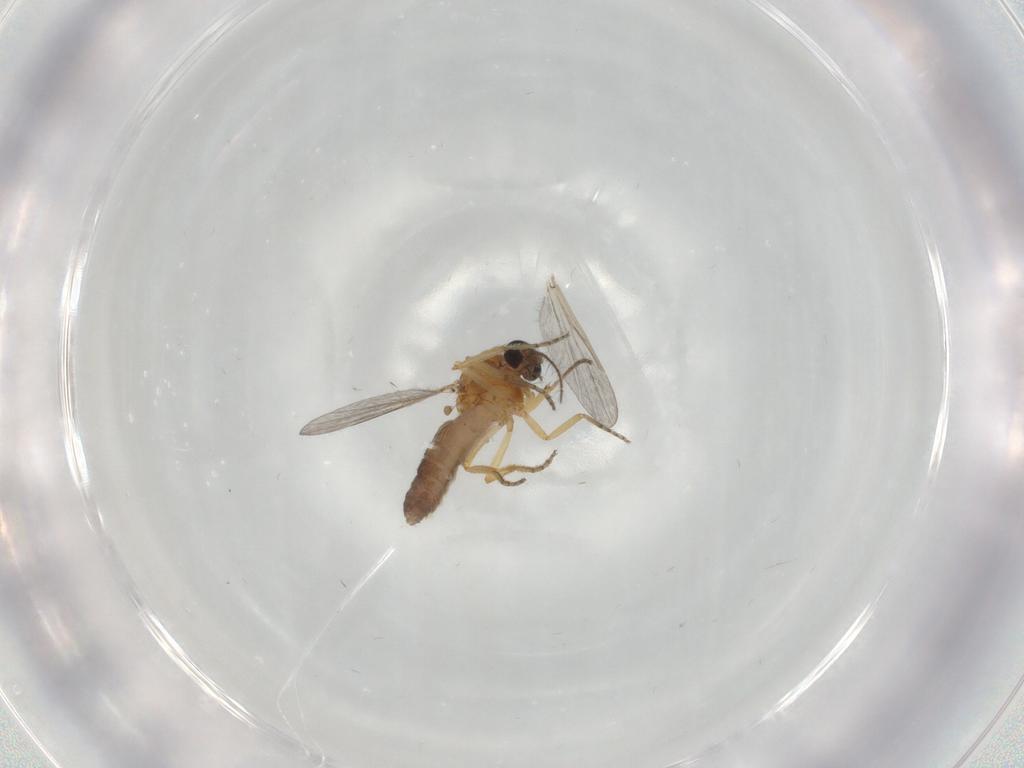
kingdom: Animalia
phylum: Arthropoda
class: Insecta
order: Diptera
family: Ceratopogonidae
